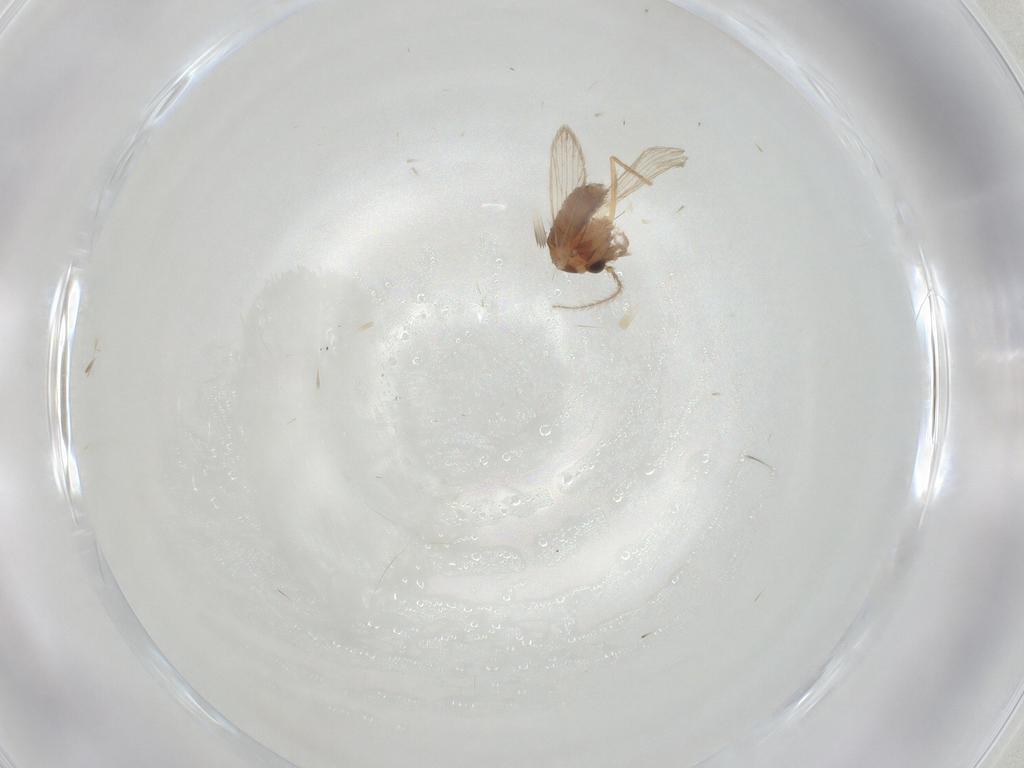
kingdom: Animalia
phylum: Arthropoda
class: Insecta
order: Diptera
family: Cecidomyiidae
